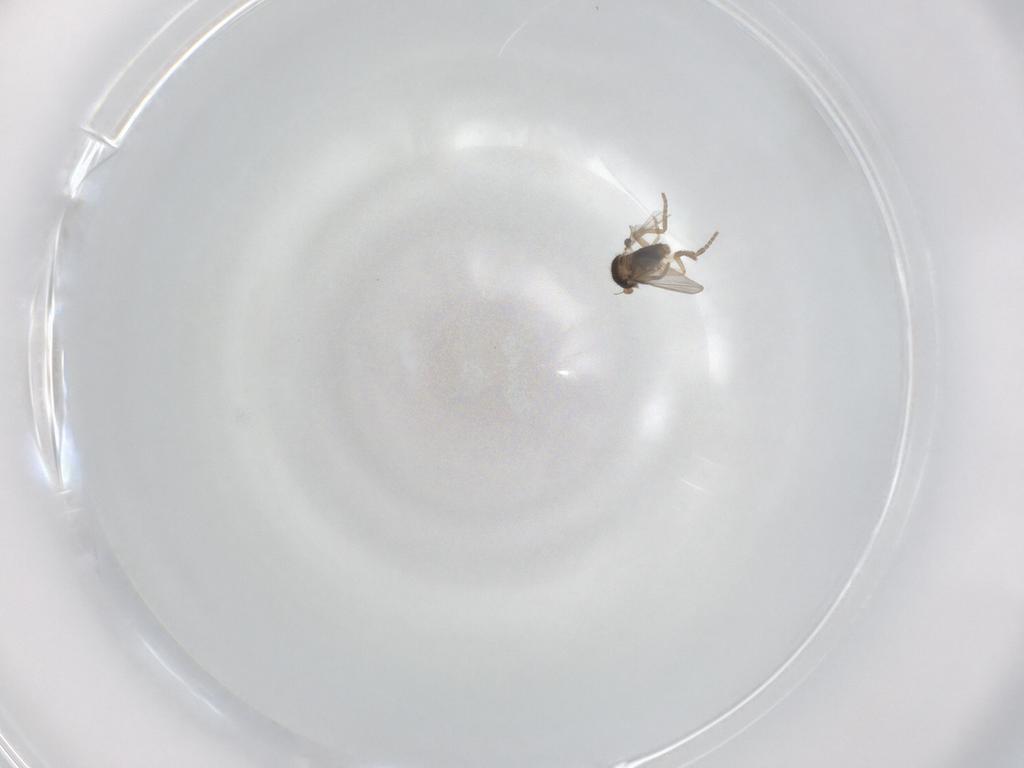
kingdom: Animalia
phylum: Arthropoda
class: Insecta
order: Diptera
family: Phoridae
